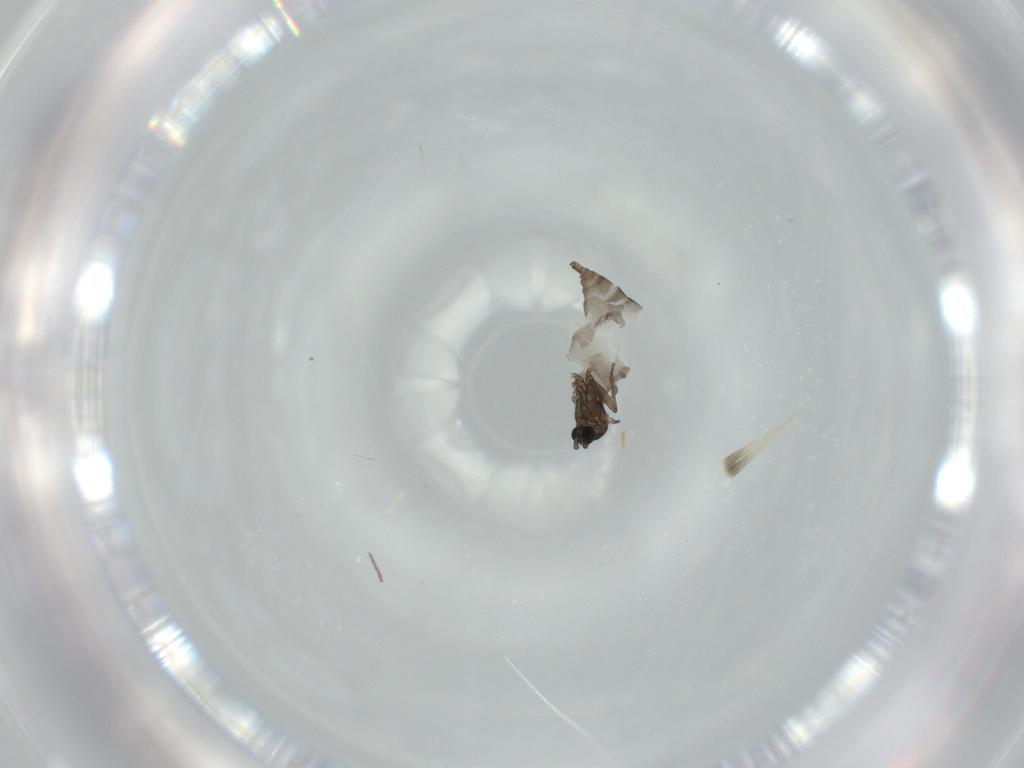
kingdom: Animalia
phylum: Arthropoda
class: Insecta
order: Diptera
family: Sciaridae
